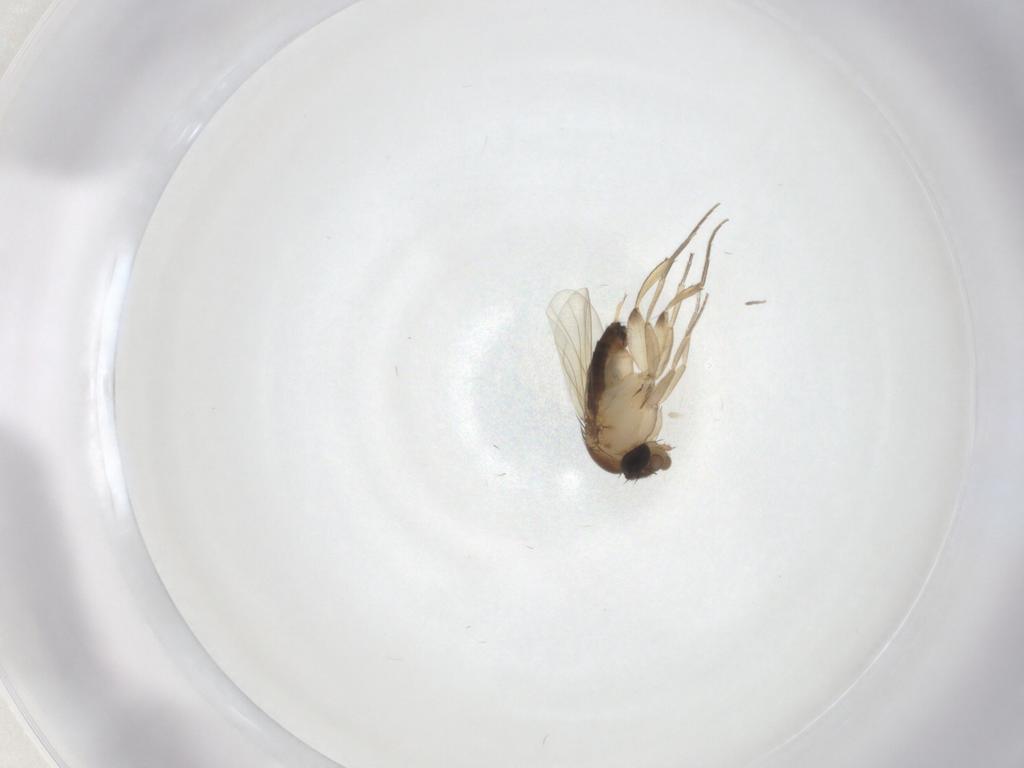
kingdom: Animalia
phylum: Arthropoda
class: Insecta
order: Diptera
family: Phoridae
